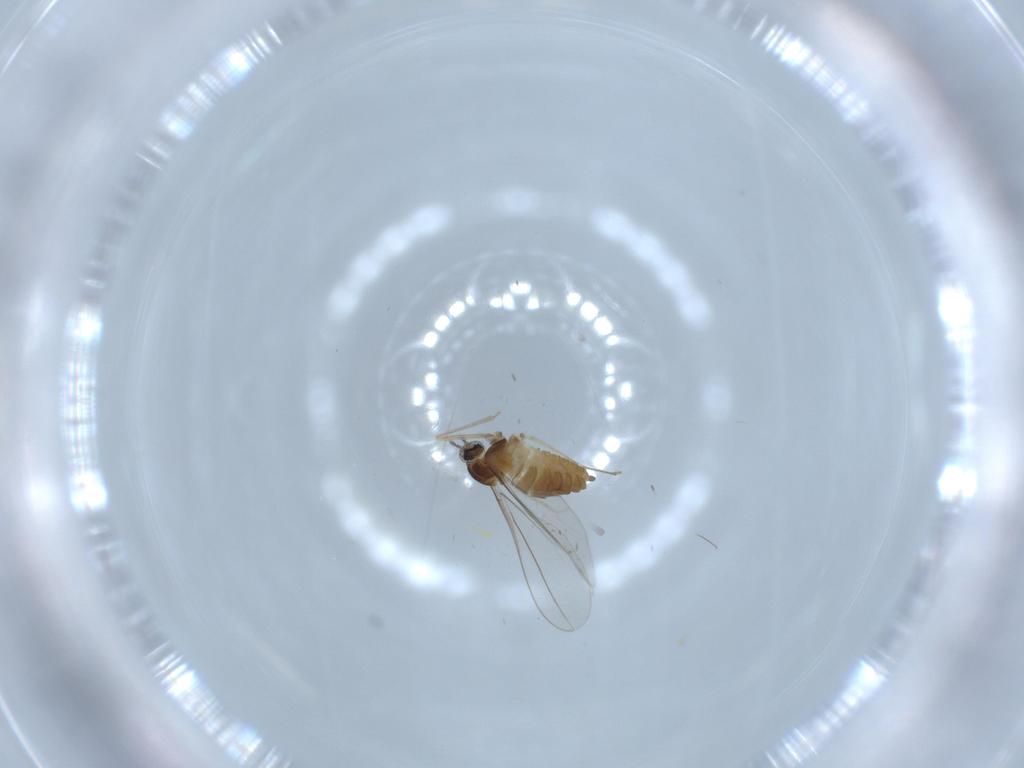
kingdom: Animalia
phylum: Arthropoda
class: Insecta
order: Diptera
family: Cecidomyiidae
